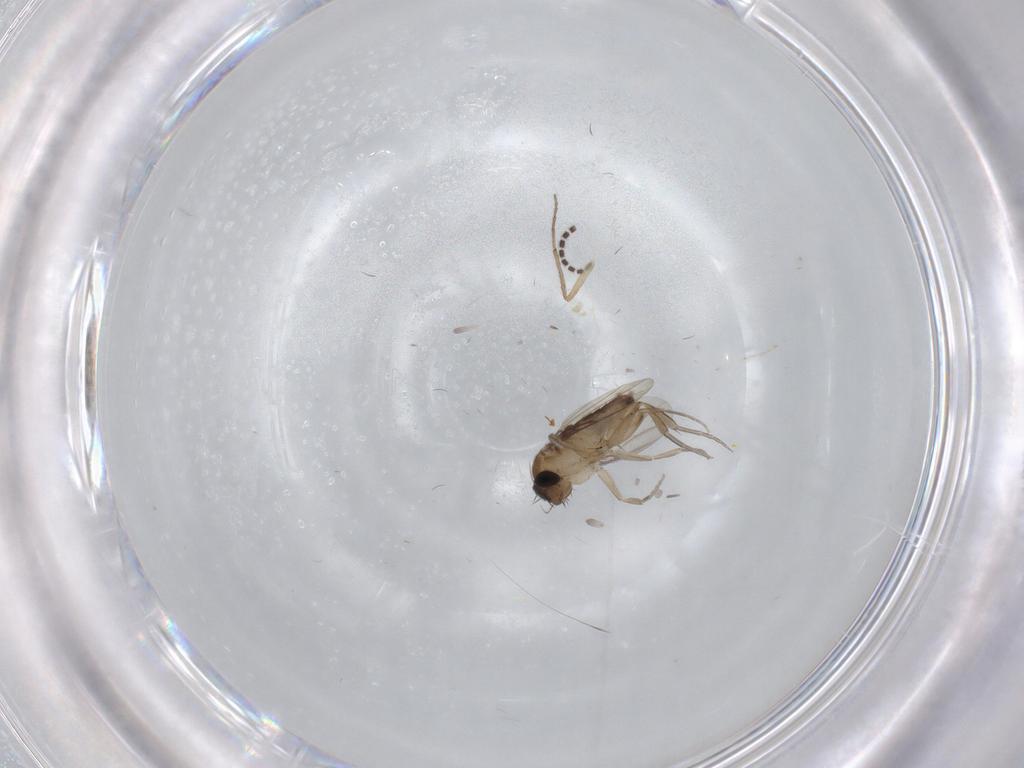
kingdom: Animalia
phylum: Arthropoda
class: Insecta
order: Diptera
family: Phoridae
